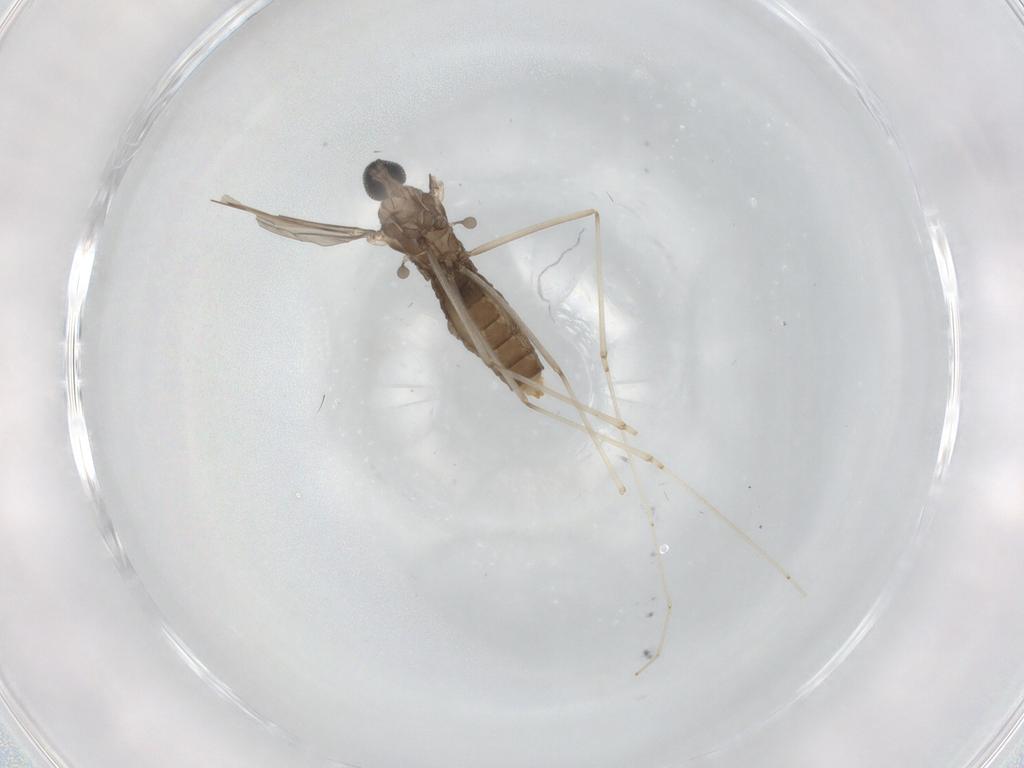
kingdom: Animalia
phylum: Arthropoda
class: Insecta
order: Diptera
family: Cecidomyiidae
